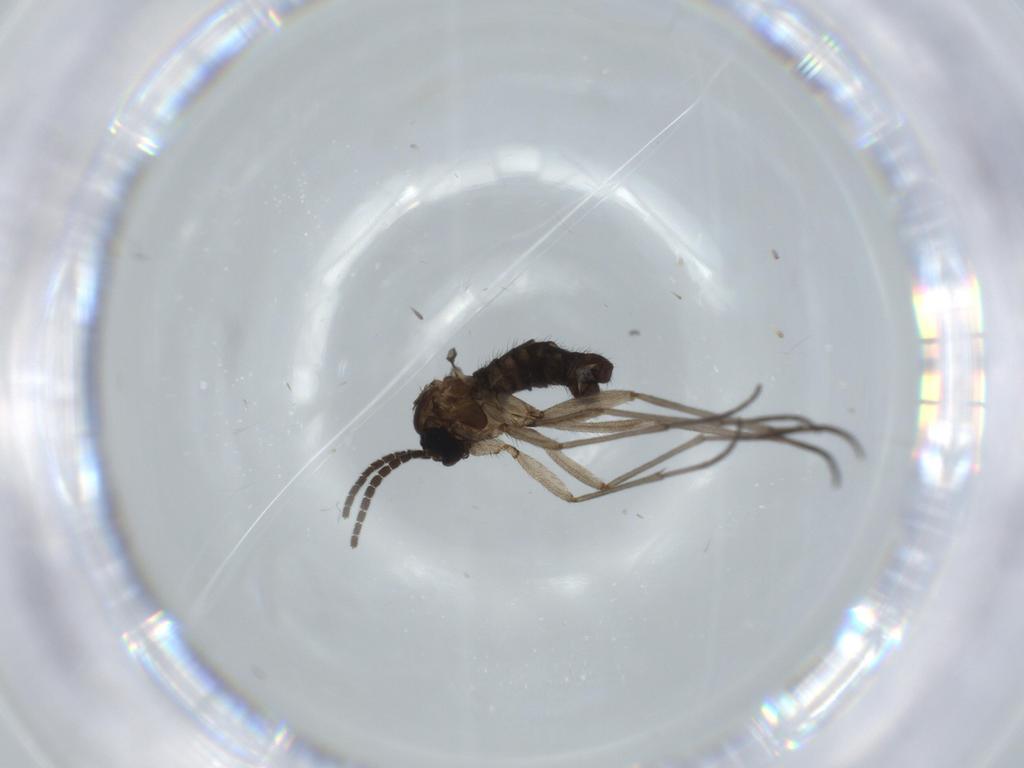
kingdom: Animalia
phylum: Arthropoda
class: Insecta
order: Diptera
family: Sciaridae
